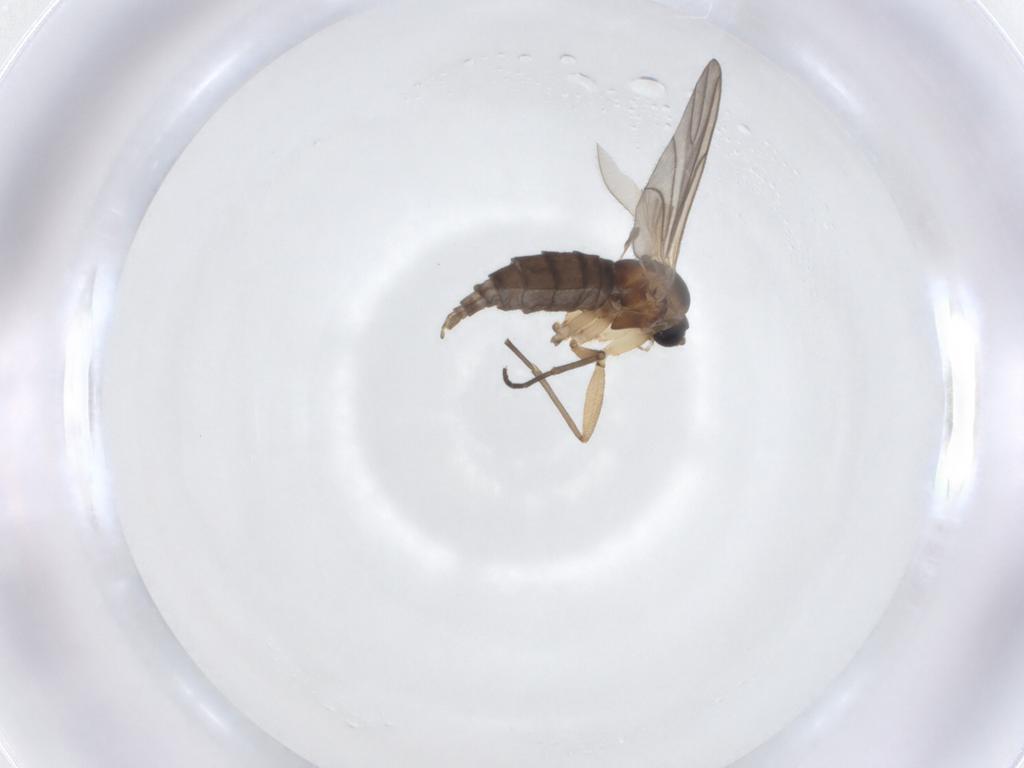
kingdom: Animalia
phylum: Arthropoda
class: Insecta
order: Diptera
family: Sciaridae
